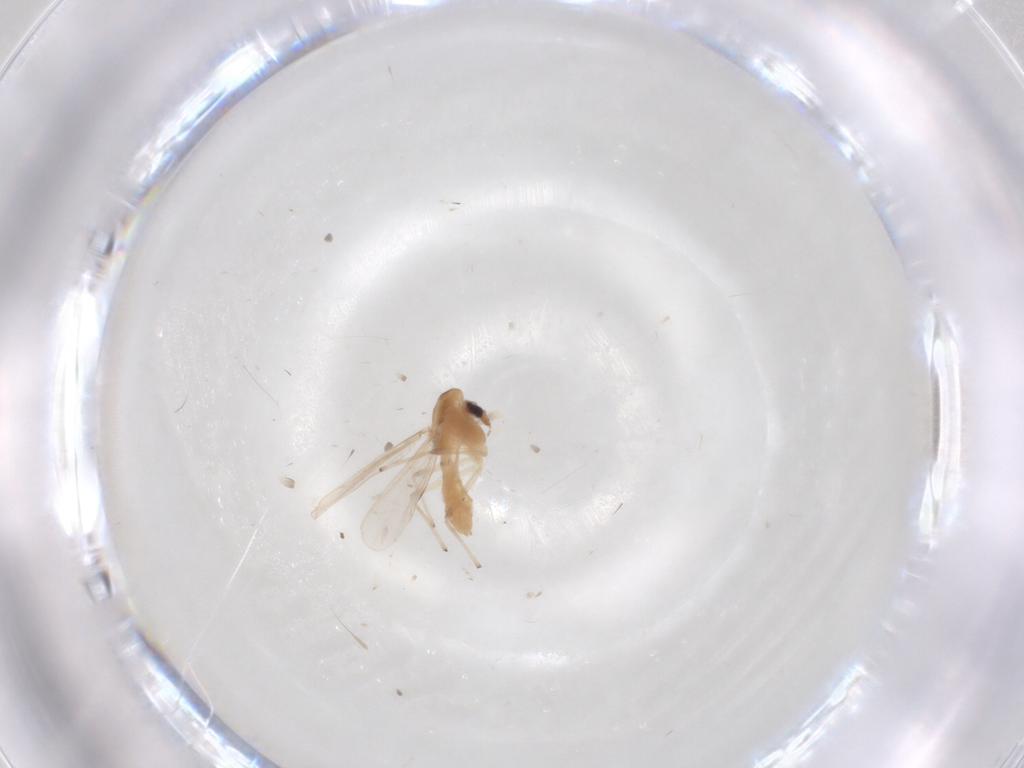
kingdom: Animalia
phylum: Arthropoda
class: Insecta
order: Diptera
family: Chironomidae
